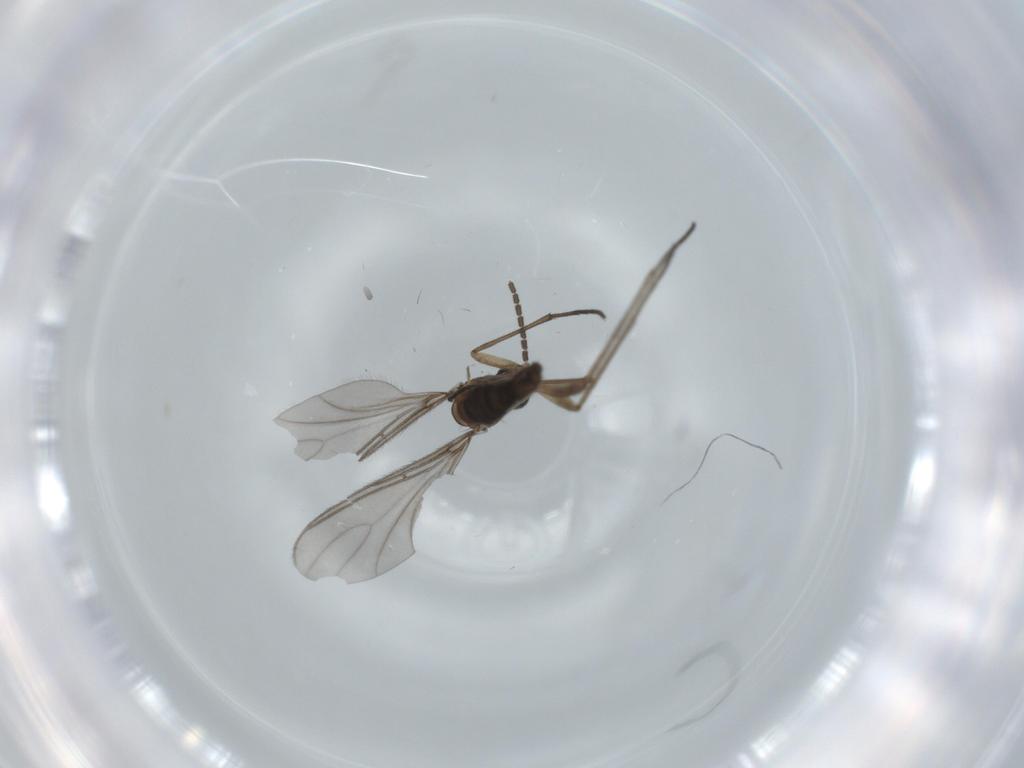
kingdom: Animalia
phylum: Arthropoda
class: Insecta
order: Diptera
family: Sciaridae
